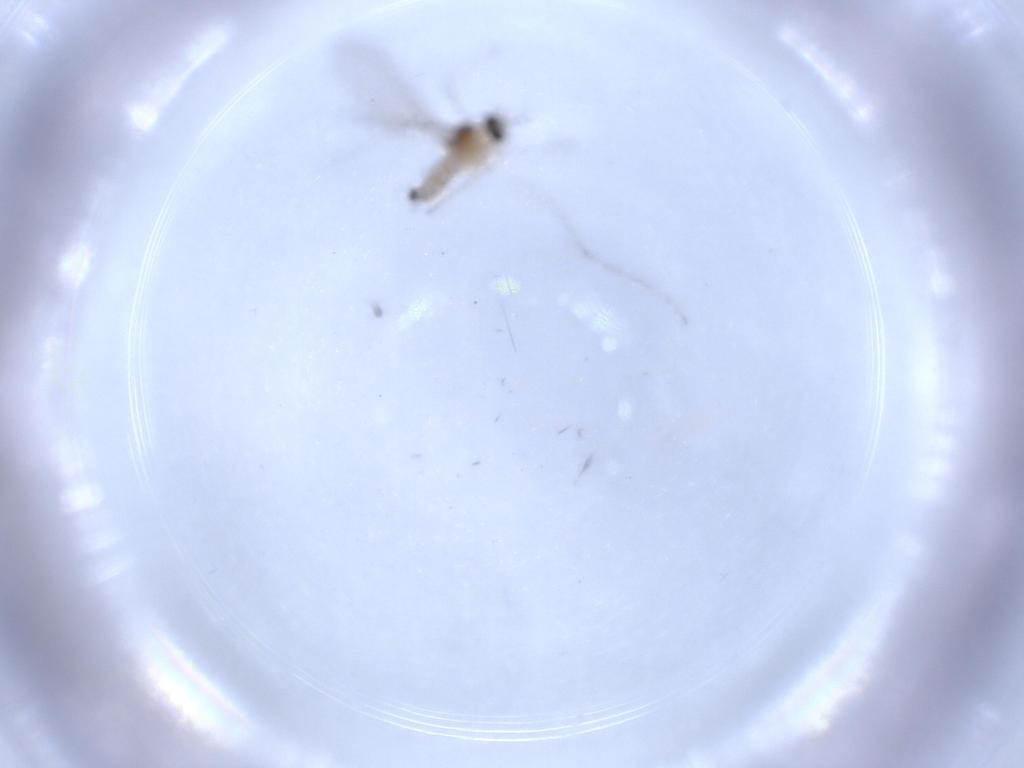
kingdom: Animalia
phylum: Arthropoda
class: Insecta
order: Diptera
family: Cecidomyiidae
